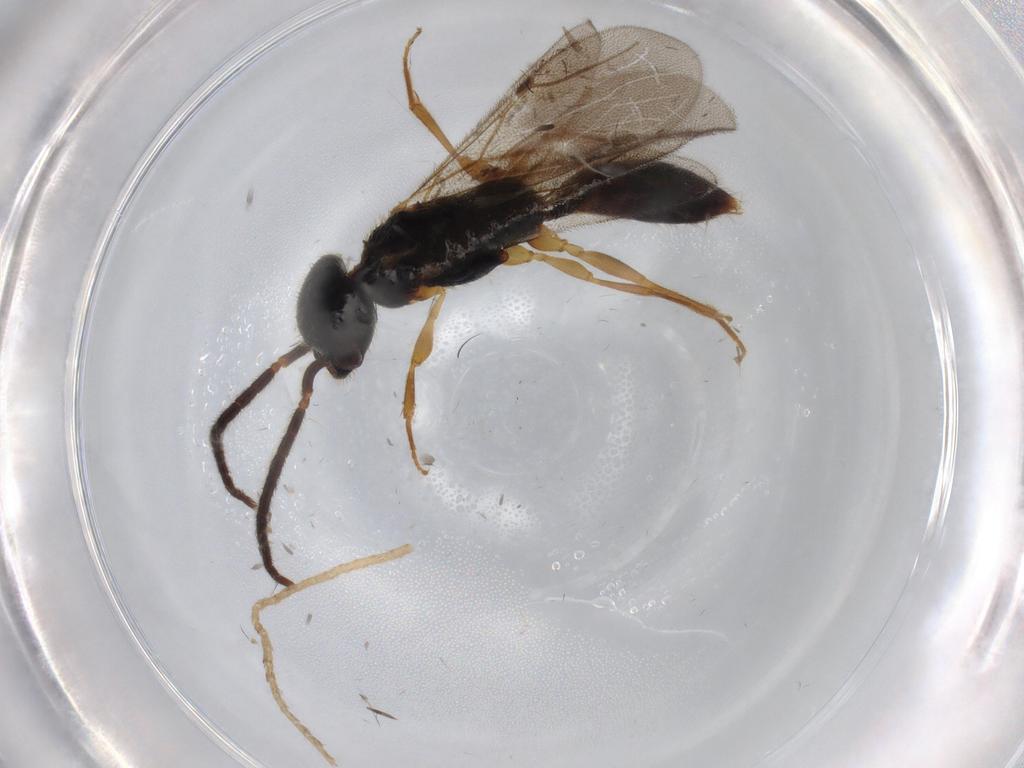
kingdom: Animalia
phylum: Arthropoda
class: Insecta
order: Hymenoptera
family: Bethylidae
